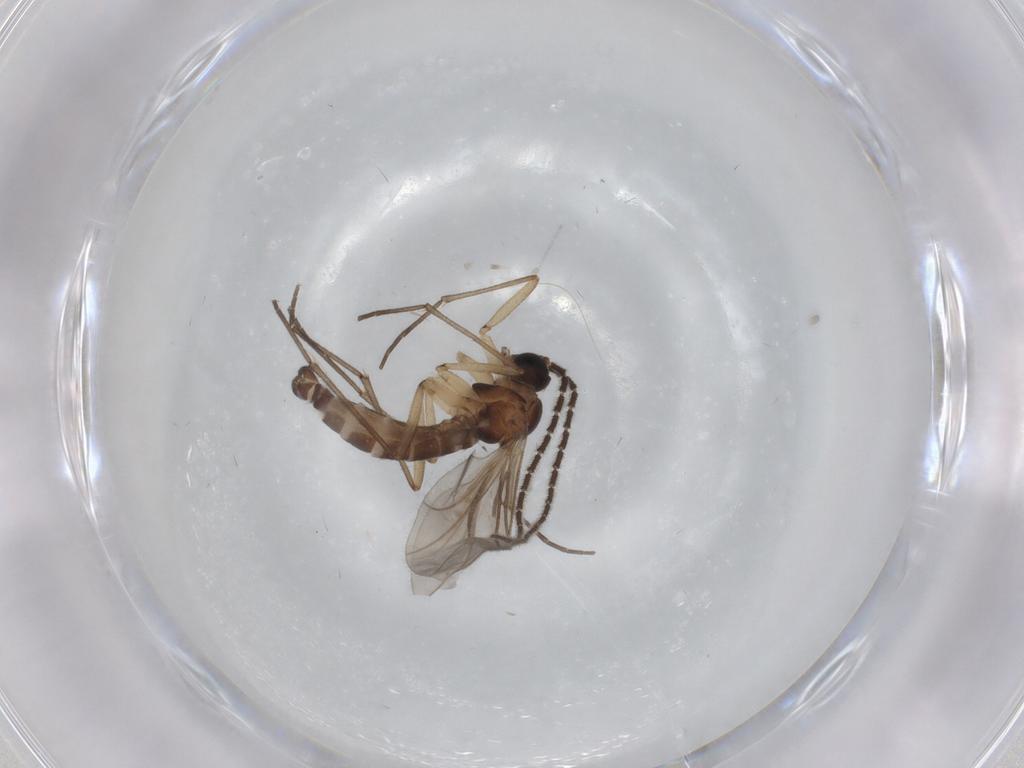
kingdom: Animalia
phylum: Arthropoda
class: Insecta
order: Diptera
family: Sciaridae
